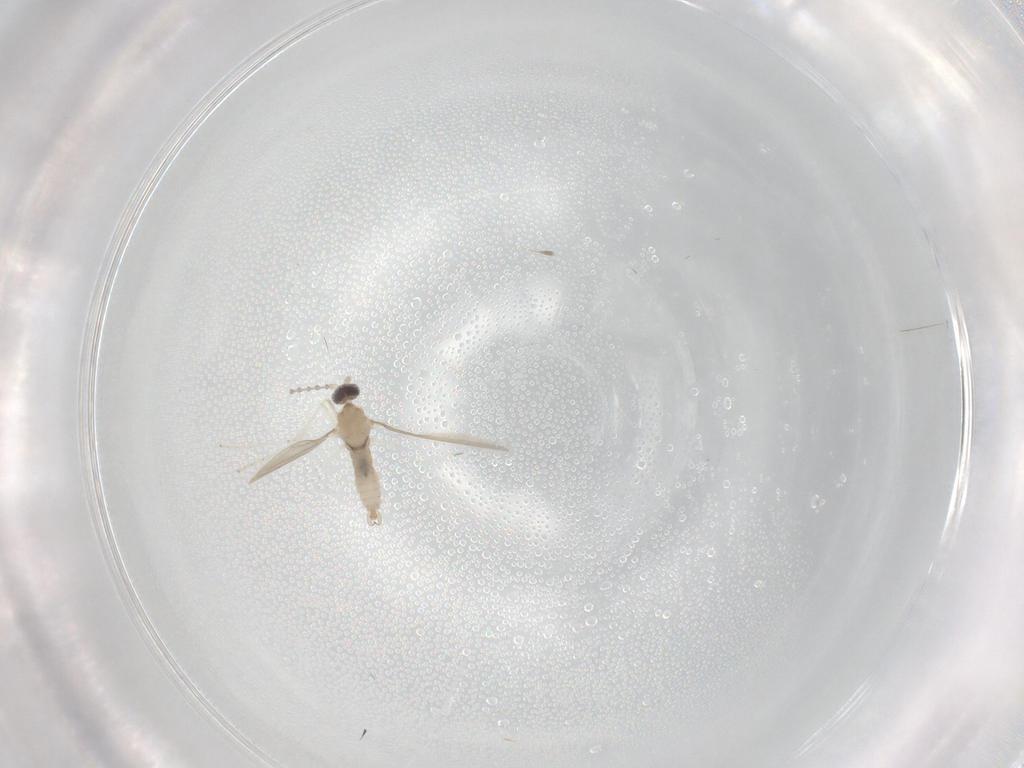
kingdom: Animalia
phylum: Arthropoda
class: Insecta
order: Diptera
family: Cecidomyiidae
